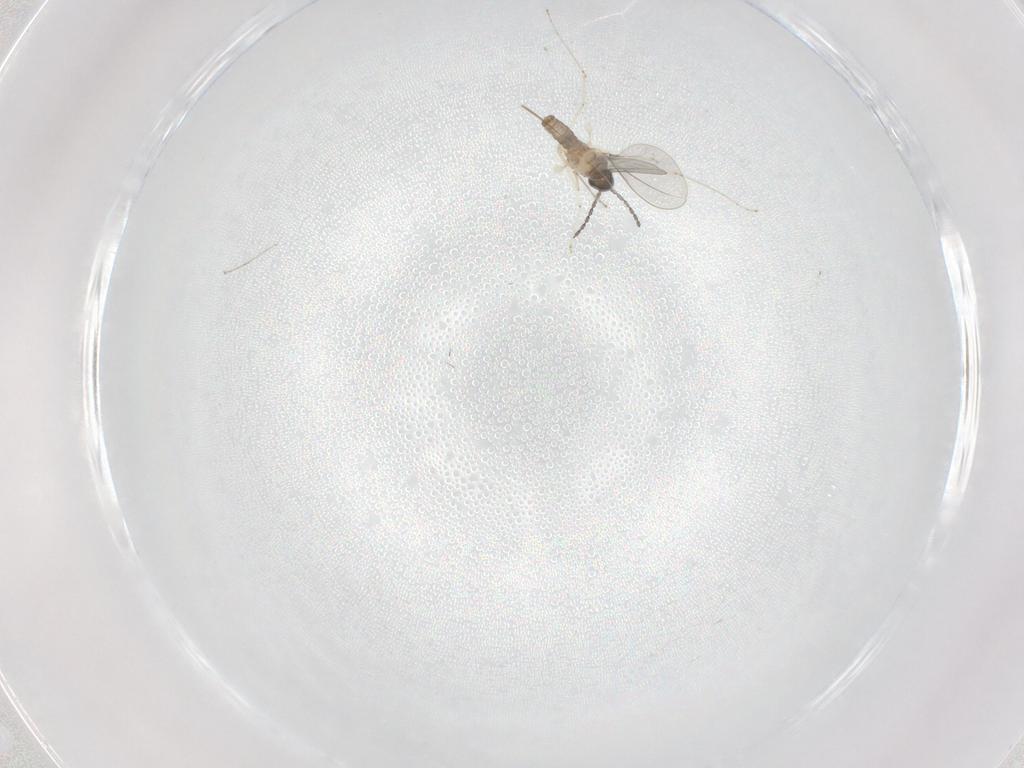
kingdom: Animalia
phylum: Arthropoda
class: Insecta
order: Diptera
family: Cecidomyiidae
